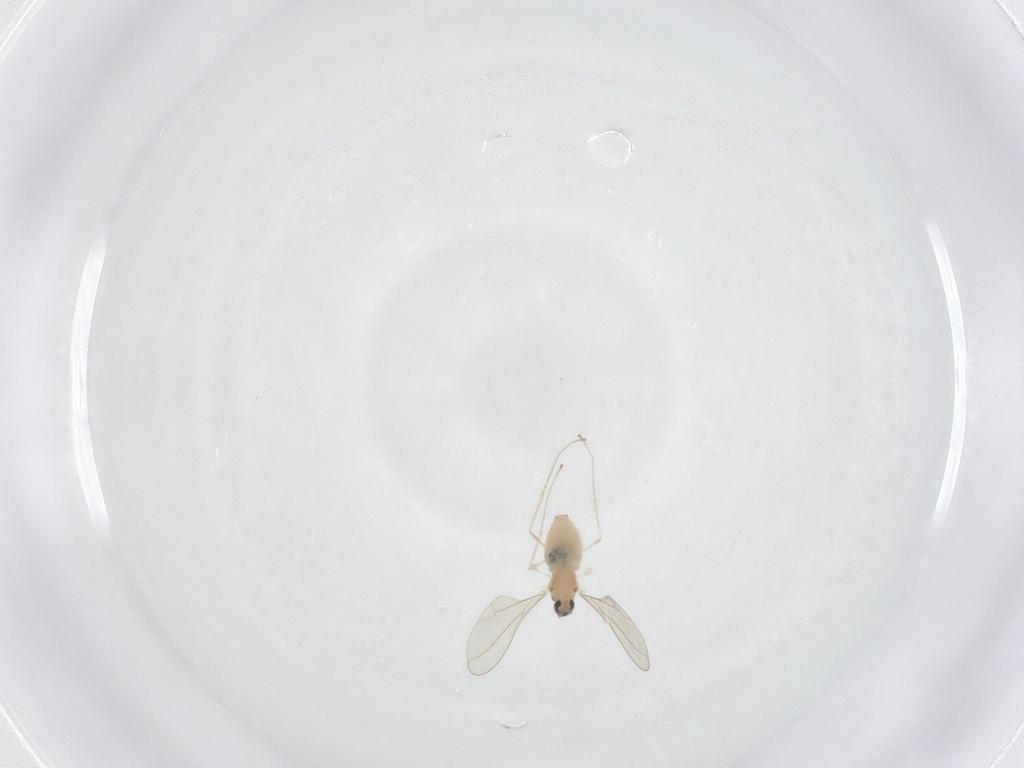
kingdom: Animalia
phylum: Arthropoda
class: Insecta
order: Diptera
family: Cecidomyiidae
